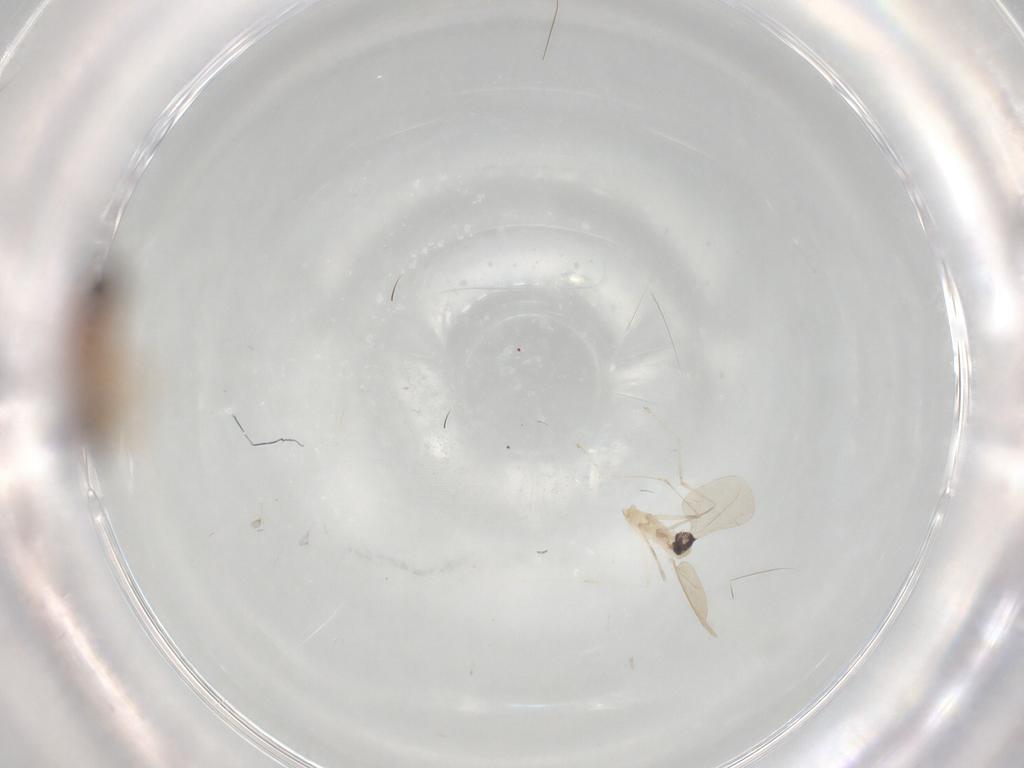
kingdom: Animalia
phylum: Arthropoda
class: Insecta
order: Diptera
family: Cecidomyiidae
